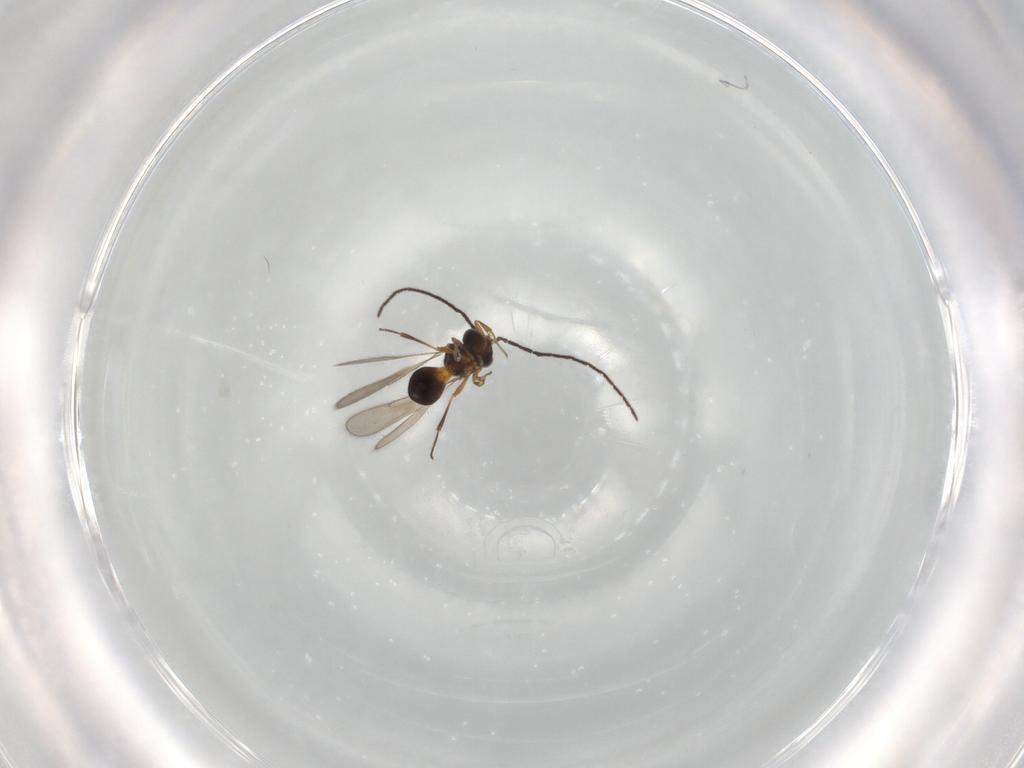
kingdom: Animalia
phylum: Arthropoda
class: Insecta
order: Hymenoptera
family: Scelionidae
